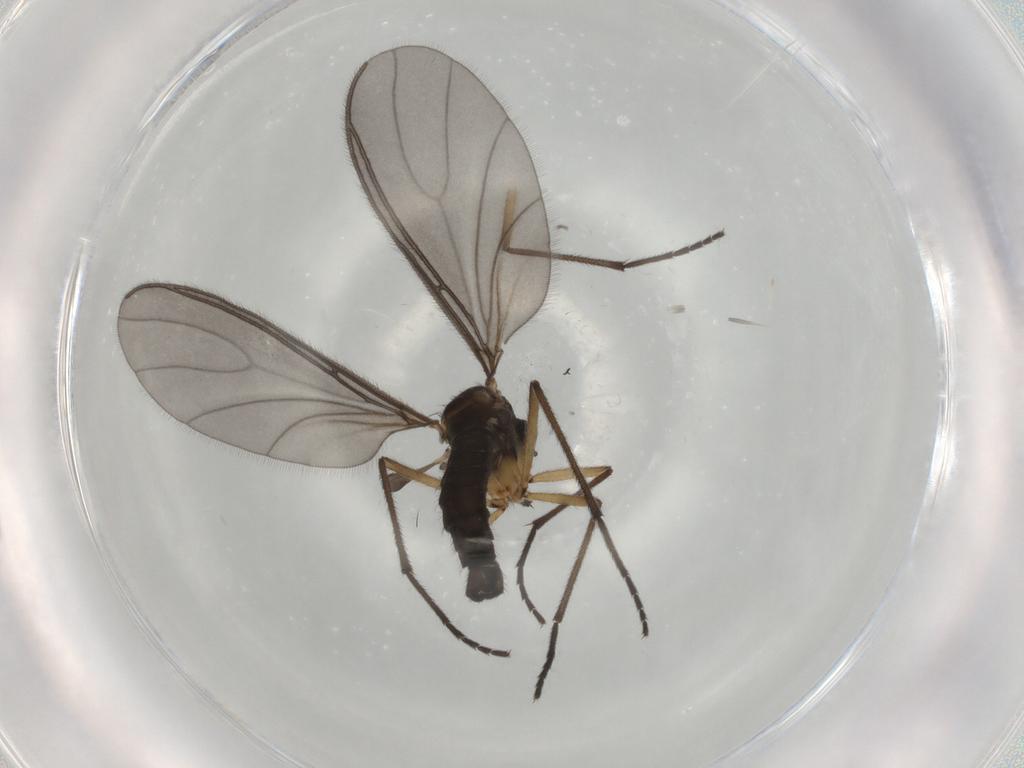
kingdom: Animalia
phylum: Arthropoda
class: Insecta
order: Diptera
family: Sciaridae
